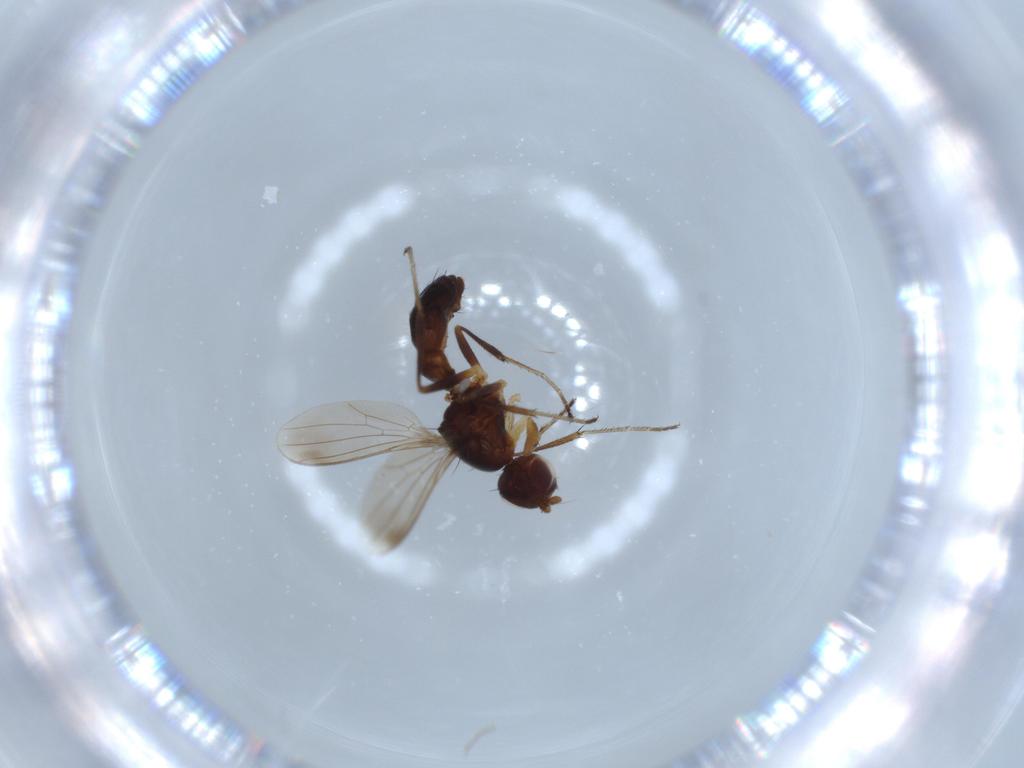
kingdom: Animalia
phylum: Arthropoda
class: Insecta
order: Diptera
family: Sepsidae
